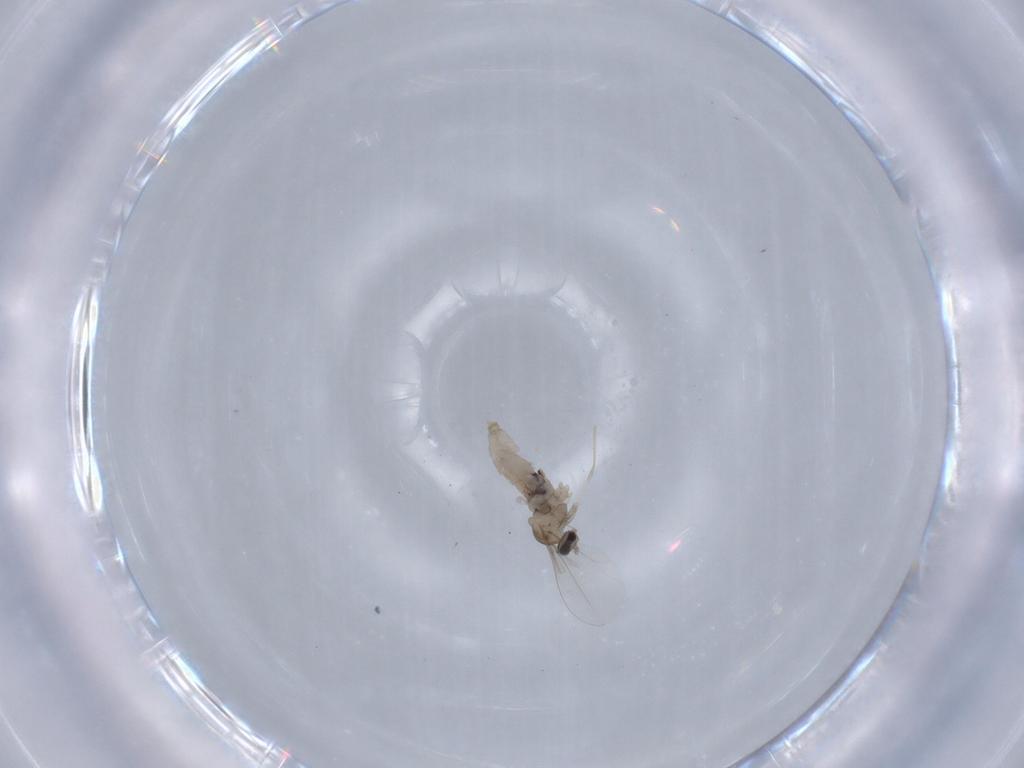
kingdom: Animalia
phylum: Arthropoda
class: Insecta
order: Diptera
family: Cecidomyiidae
